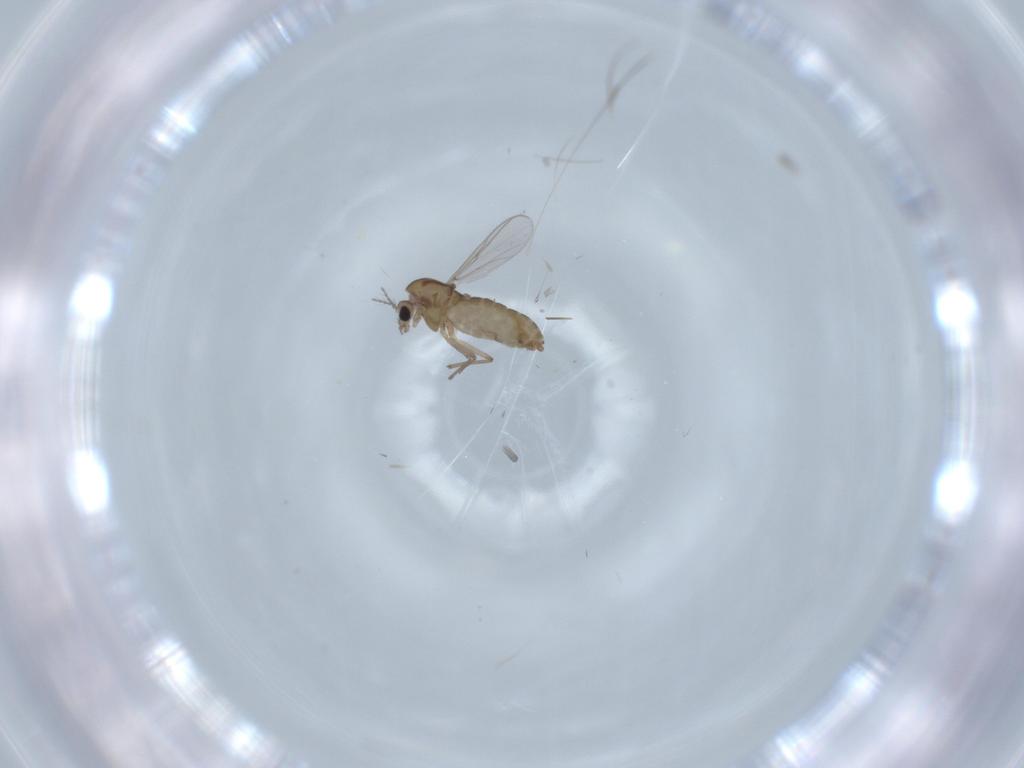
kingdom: Animalia
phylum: Arthropoda
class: Insecta
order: Diptera
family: Chironomidae
